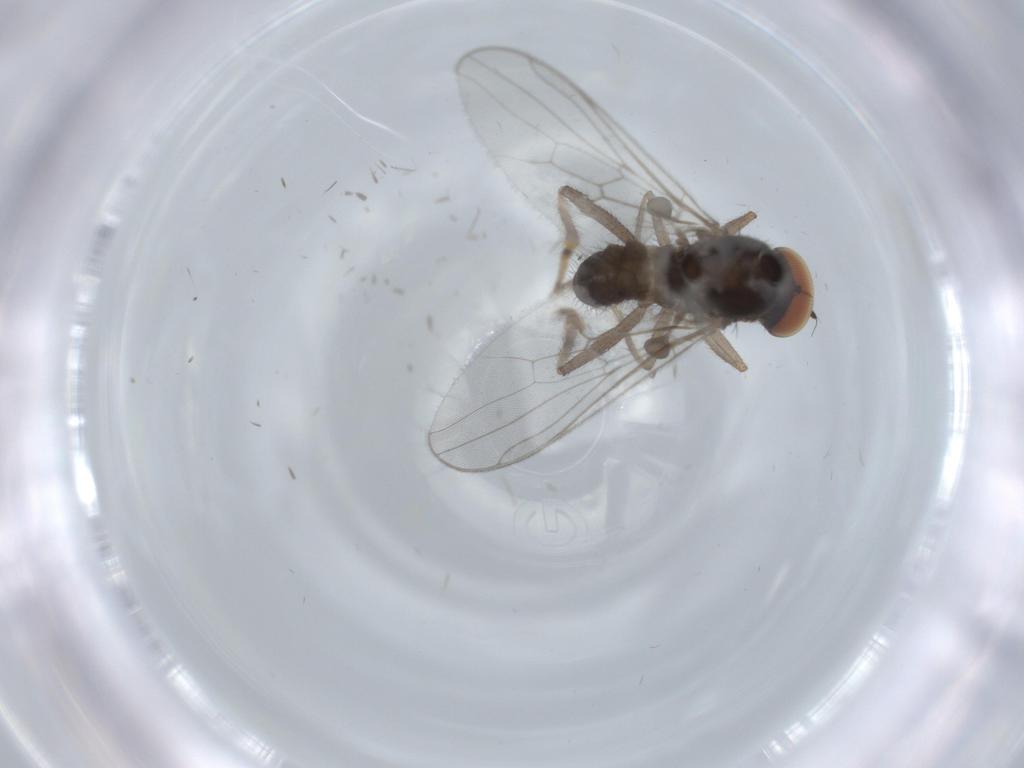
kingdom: Animalia
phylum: Arthropoda
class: Insecta
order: Diptera
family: Hybotidae
